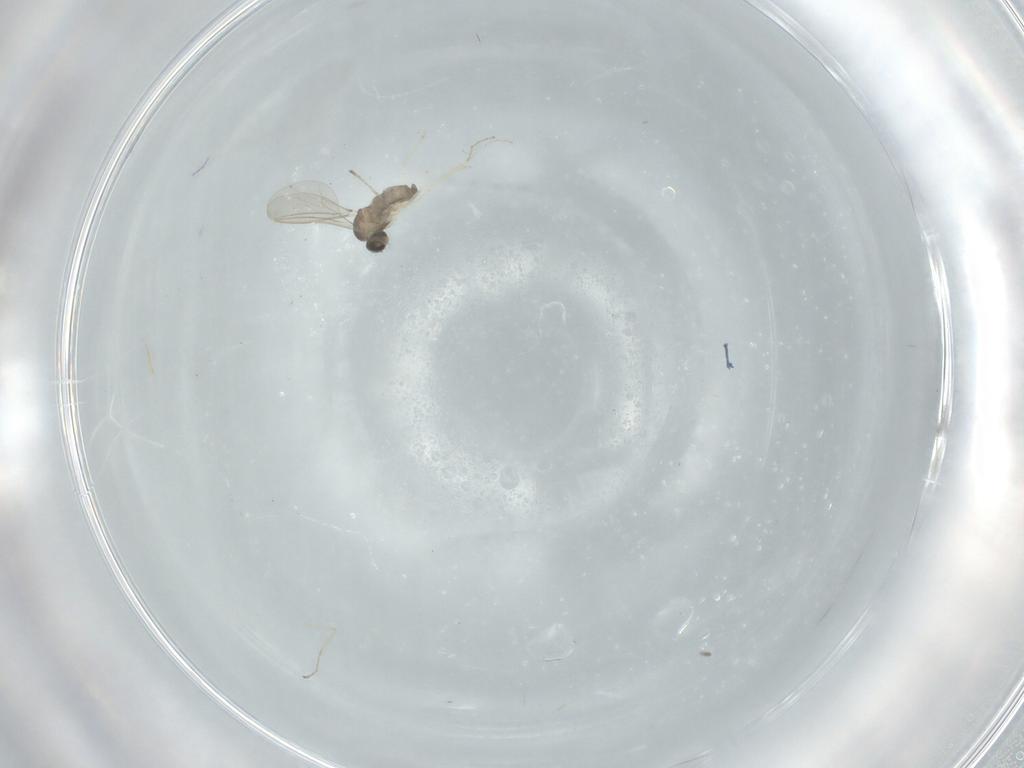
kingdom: Animalia
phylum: Arthropoda
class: Insecta
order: Diptera
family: Cecidomyiidae
